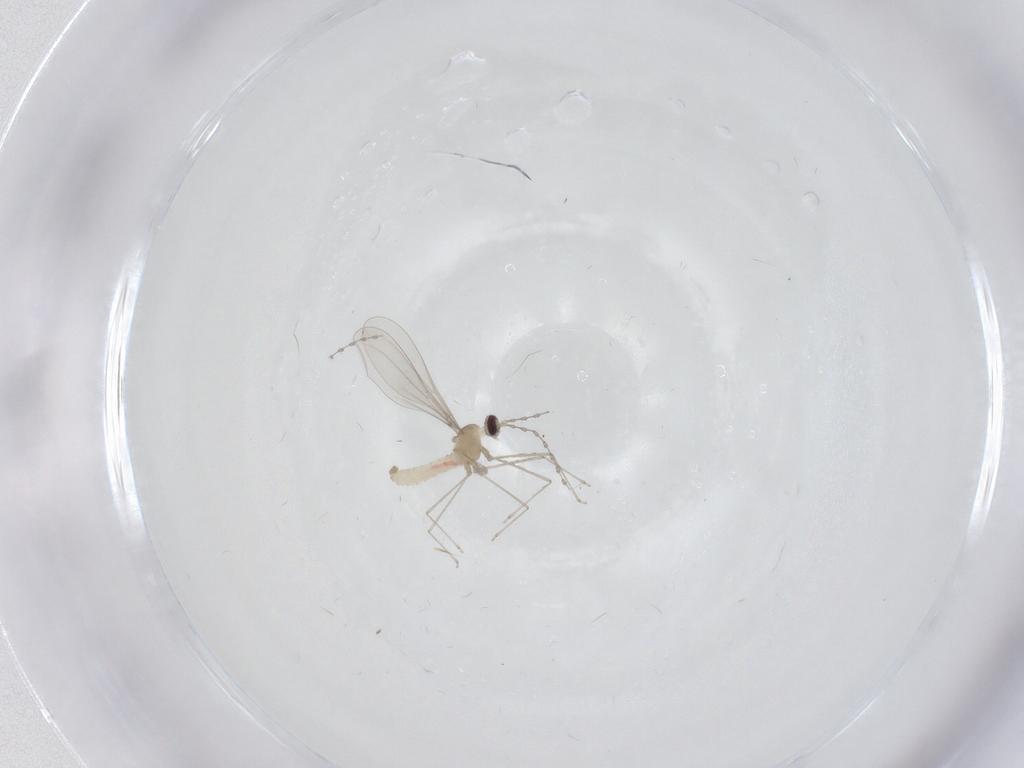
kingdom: Animalia
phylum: Arthropoda
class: Insecta
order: Diptera
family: Cecidomyiidae
